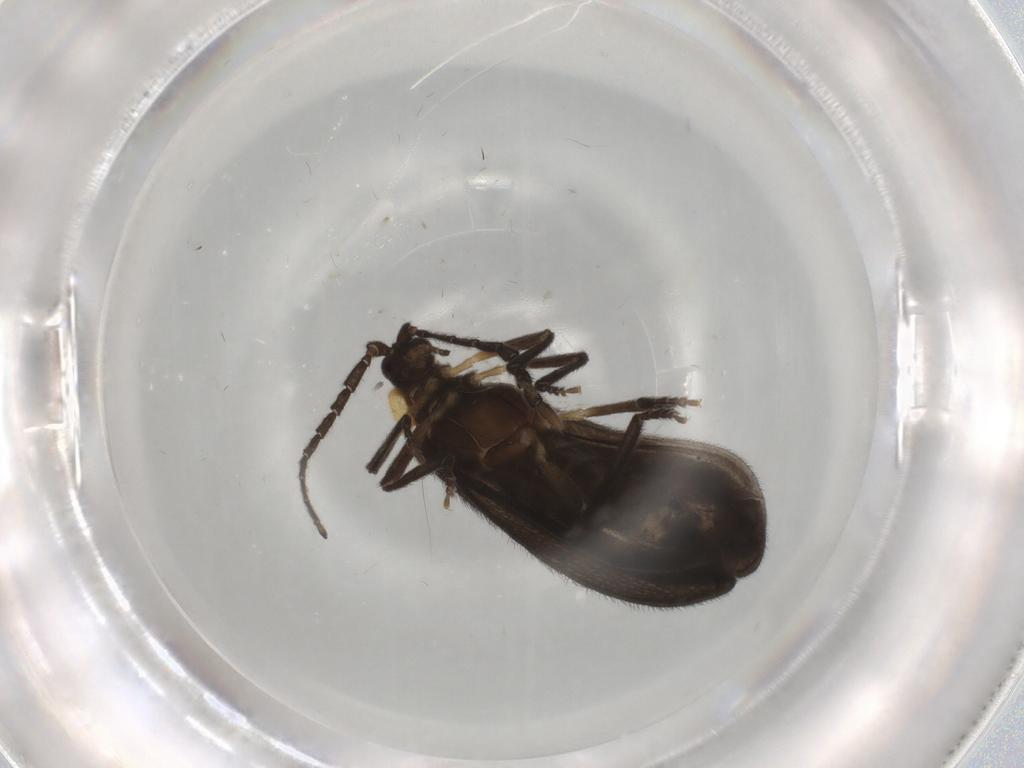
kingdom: Animalia
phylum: Arthropoda
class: Insecta
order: Coleoptera
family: Lycidae
